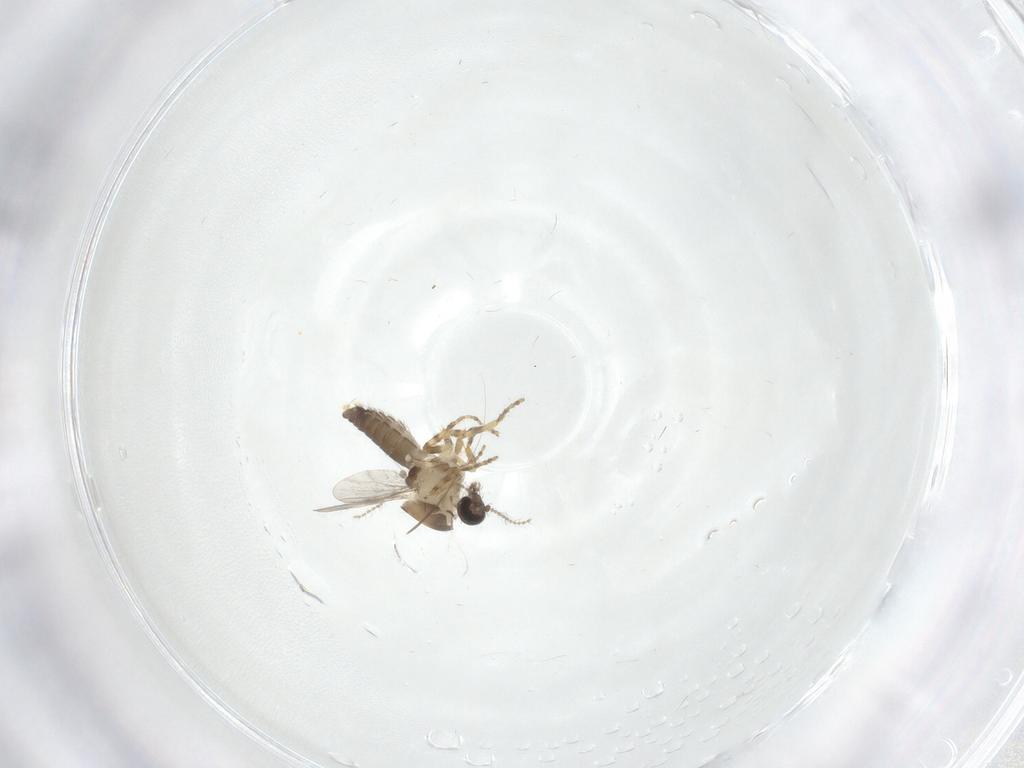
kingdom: Animalia
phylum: Arthropoda
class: Insecta
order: Diptera
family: Ceratopogonidae
